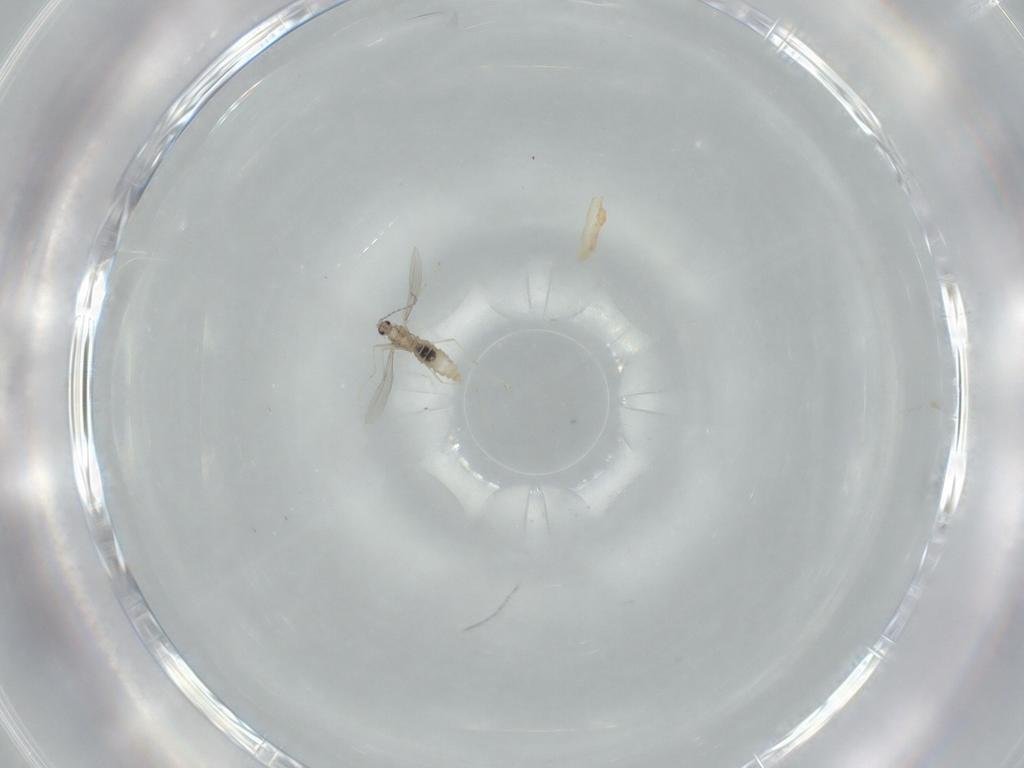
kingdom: Animalia
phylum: Arthropoda
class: Insecta
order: Diptera
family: Cecidomyiidae
